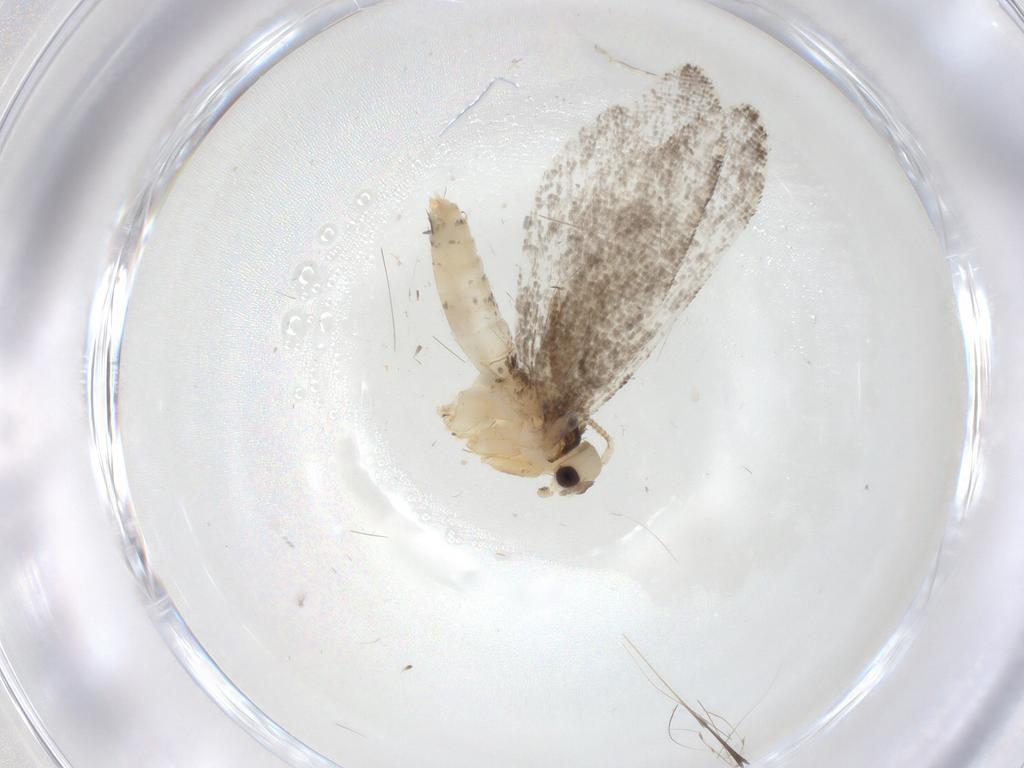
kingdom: Animalia
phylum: Arthropoda
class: Insecta
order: Lepidoptera
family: Tineidae
